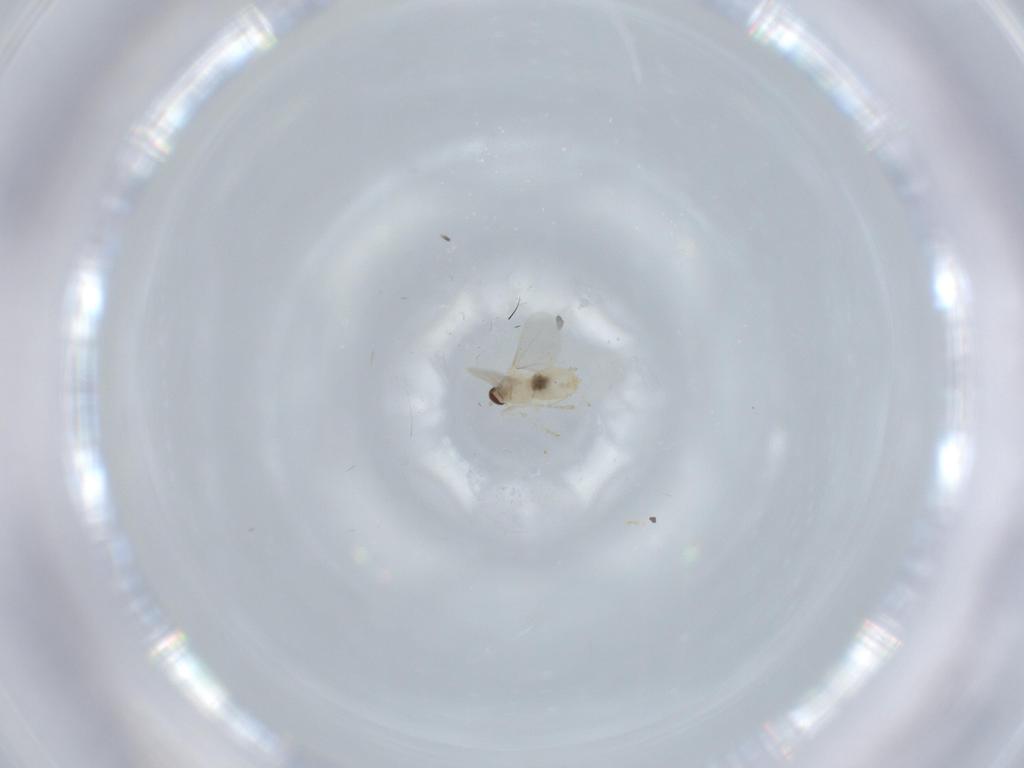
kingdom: Animalia
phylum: Arthropoda
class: Insecta
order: Diptera
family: Cecidomyiidae
